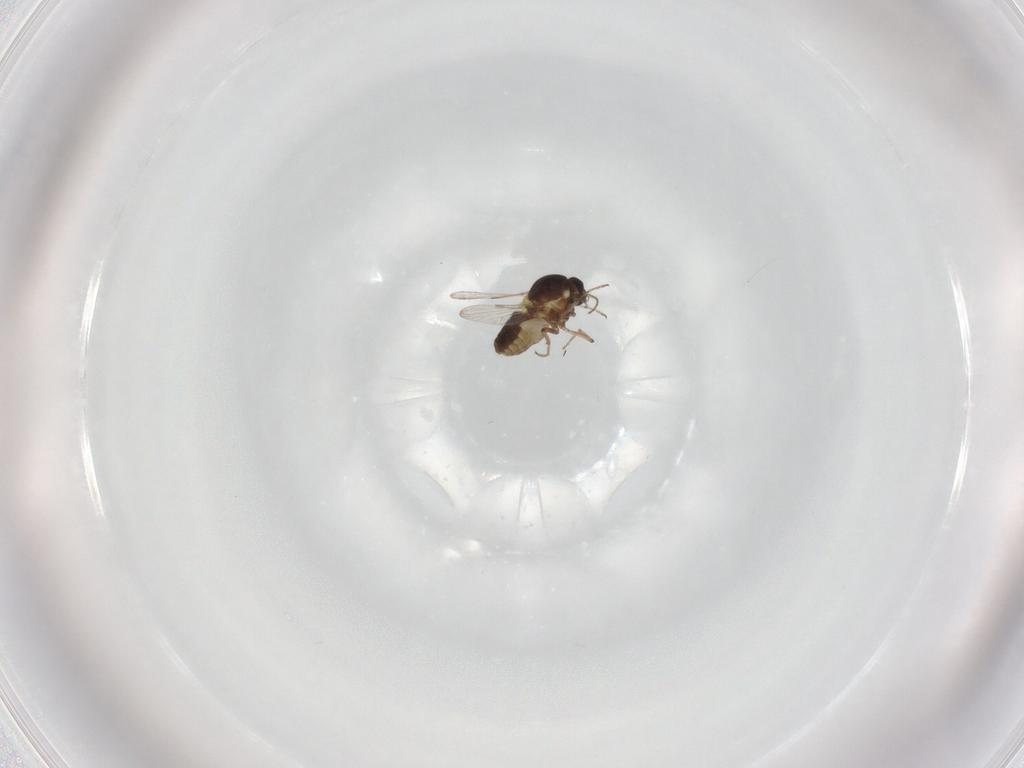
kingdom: Animalia
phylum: Arthropoda
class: Insecta
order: Diptera
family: Ceratopogonidae
